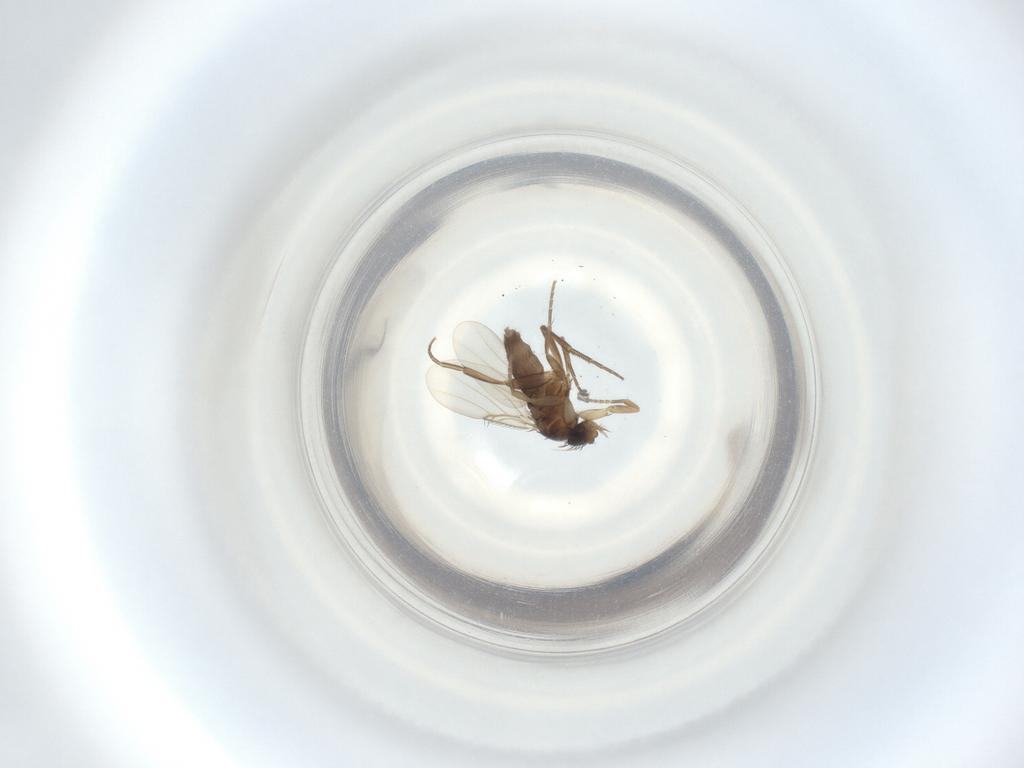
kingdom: Animalia
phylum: Arthropoda
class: Insecta
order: Diptera
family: Phoridae
